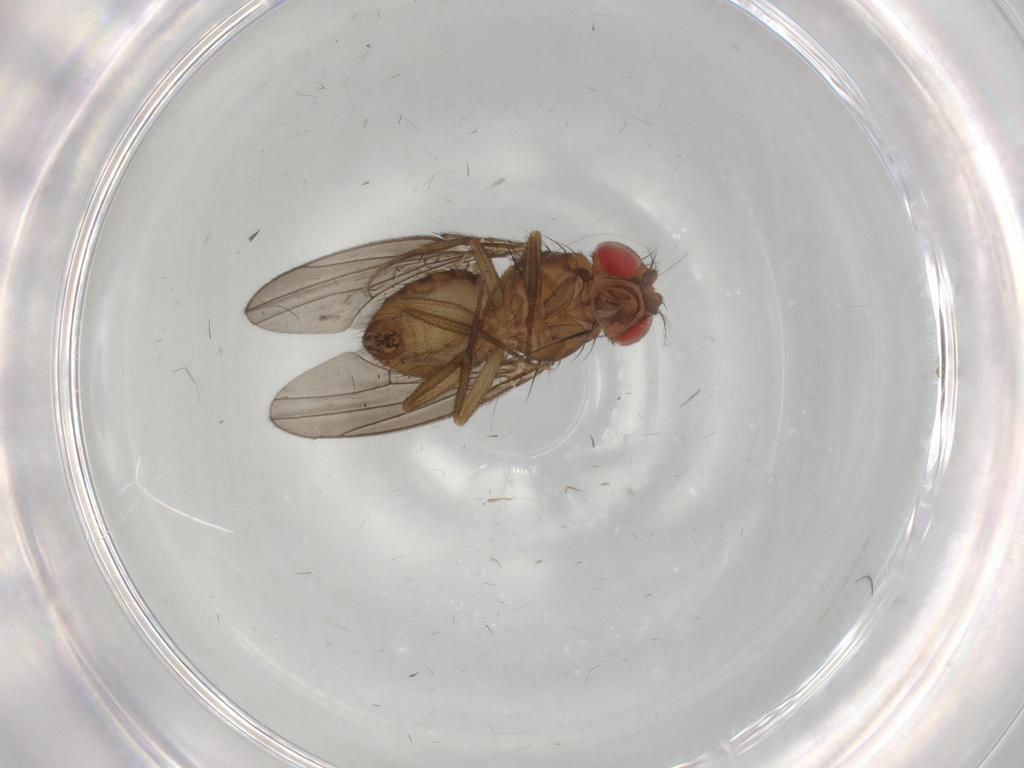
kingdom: Animalia
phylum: Arthropoda
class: Insecta
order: Diptera
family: Drosophilidae
